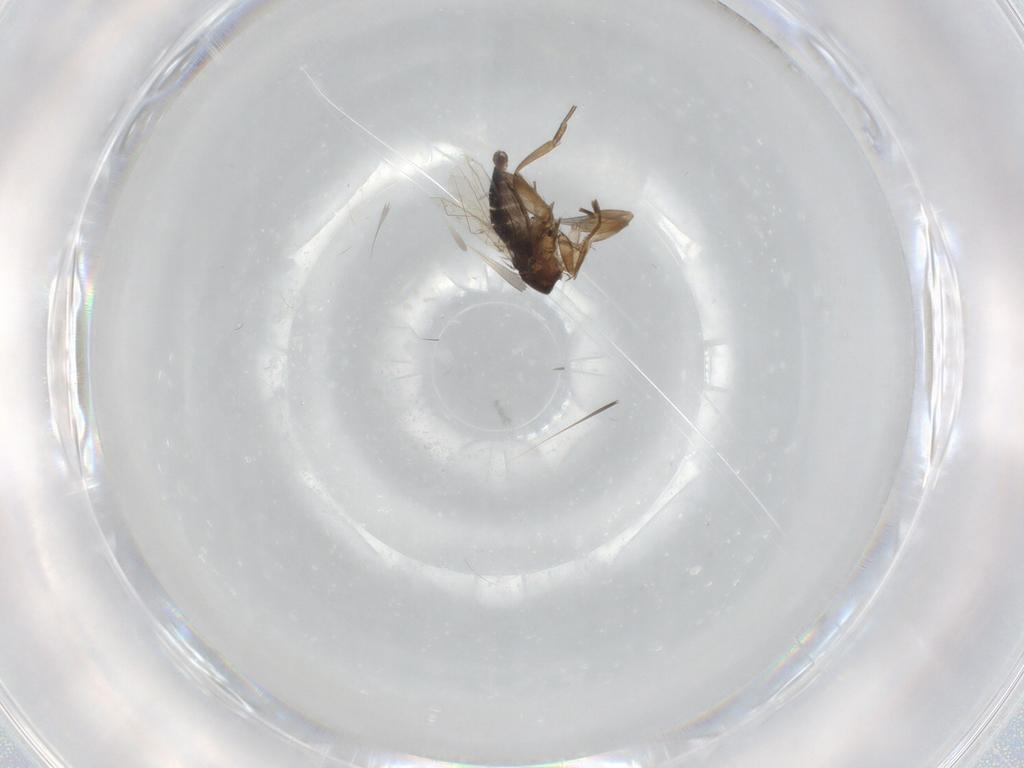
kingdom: Animalia
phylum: Arthropoda
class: Insecta
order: Diptera
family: Phoridae
